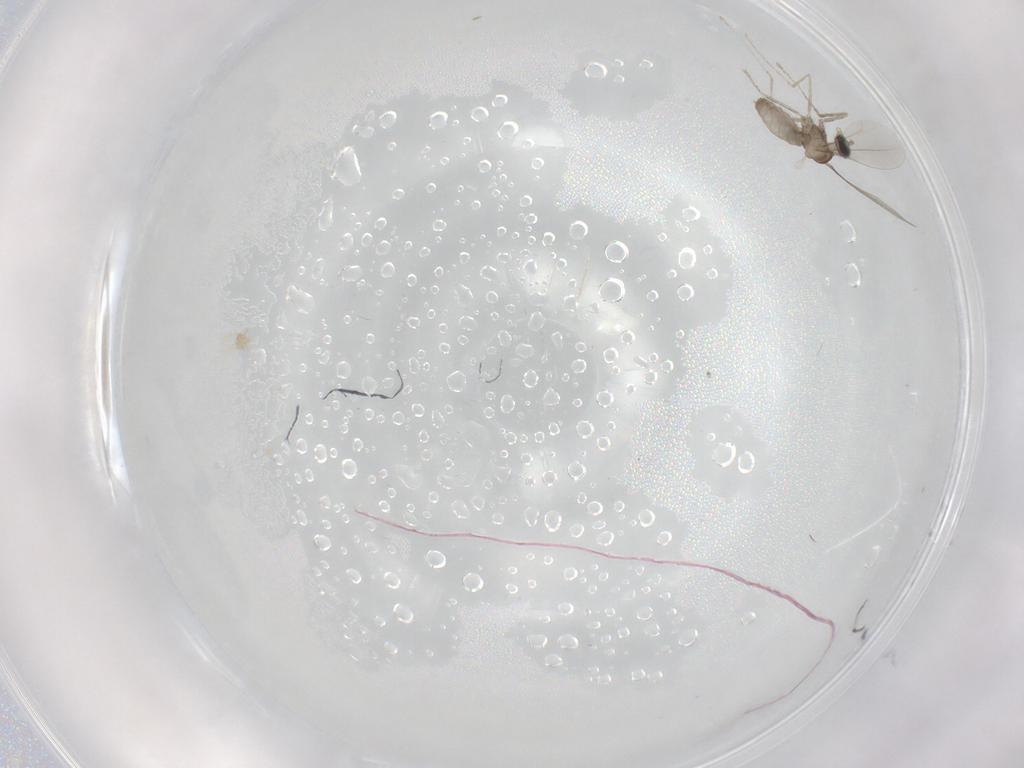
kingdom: Animalia
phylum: Arthropoda
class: Insecta
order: Diptera
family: Cecidomyiidae
